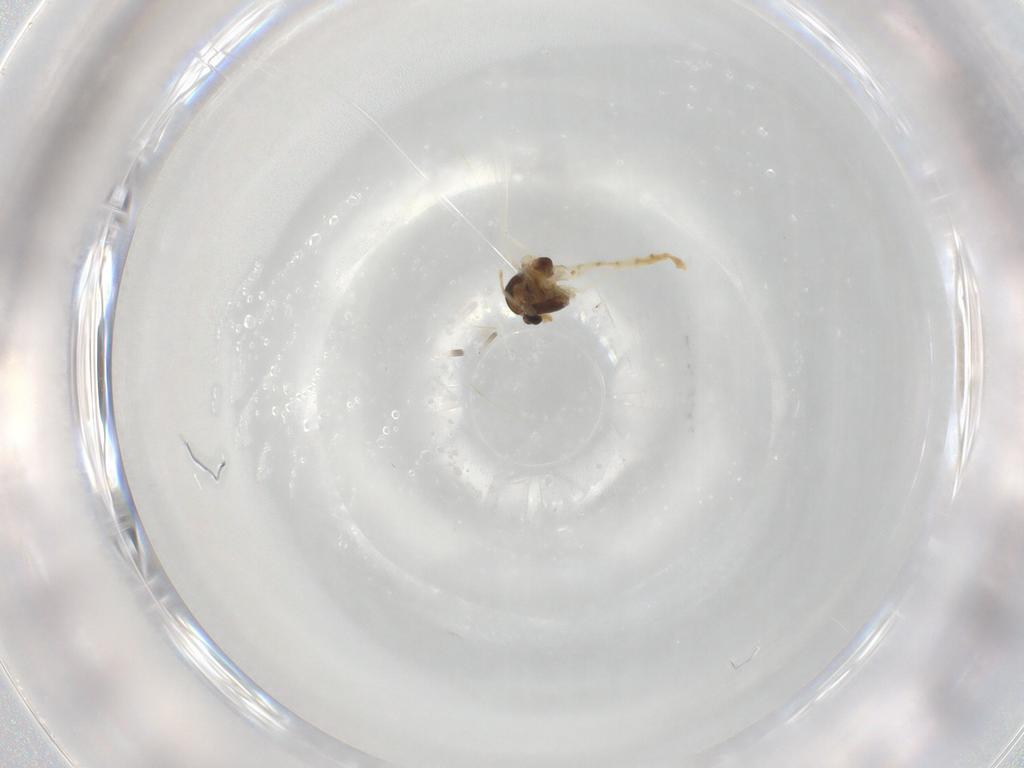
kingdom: Animalia
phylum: Arthropoda
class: Insecta
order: Diptera
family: Chironomidae
